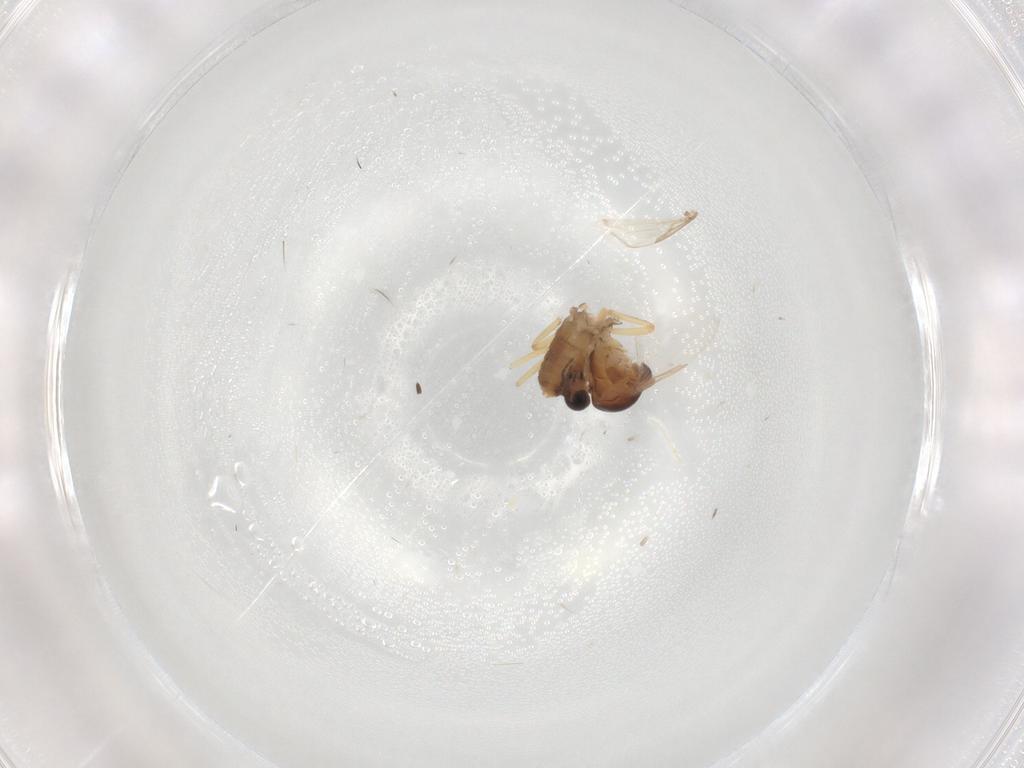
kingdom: Animalia
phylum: Arthropoda
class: Insecta
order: Diptera
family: Ceratopogonidae
